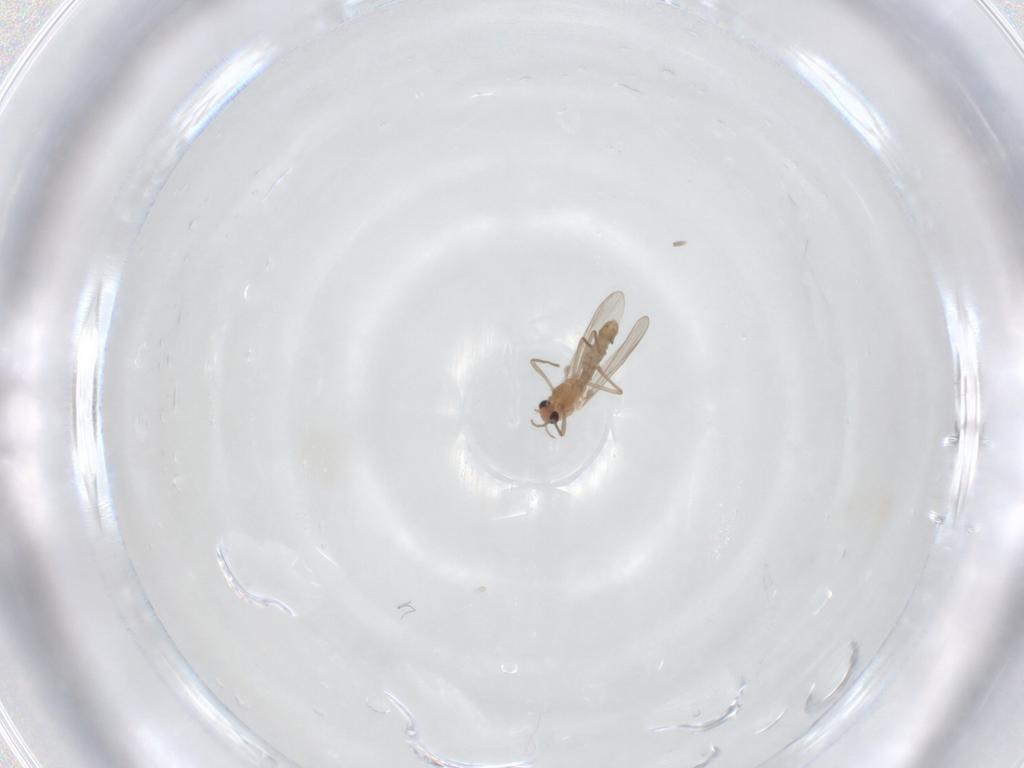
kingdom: Animalia
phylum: Arthropoda
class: Insecta
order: Diptera
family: Chironomidae
